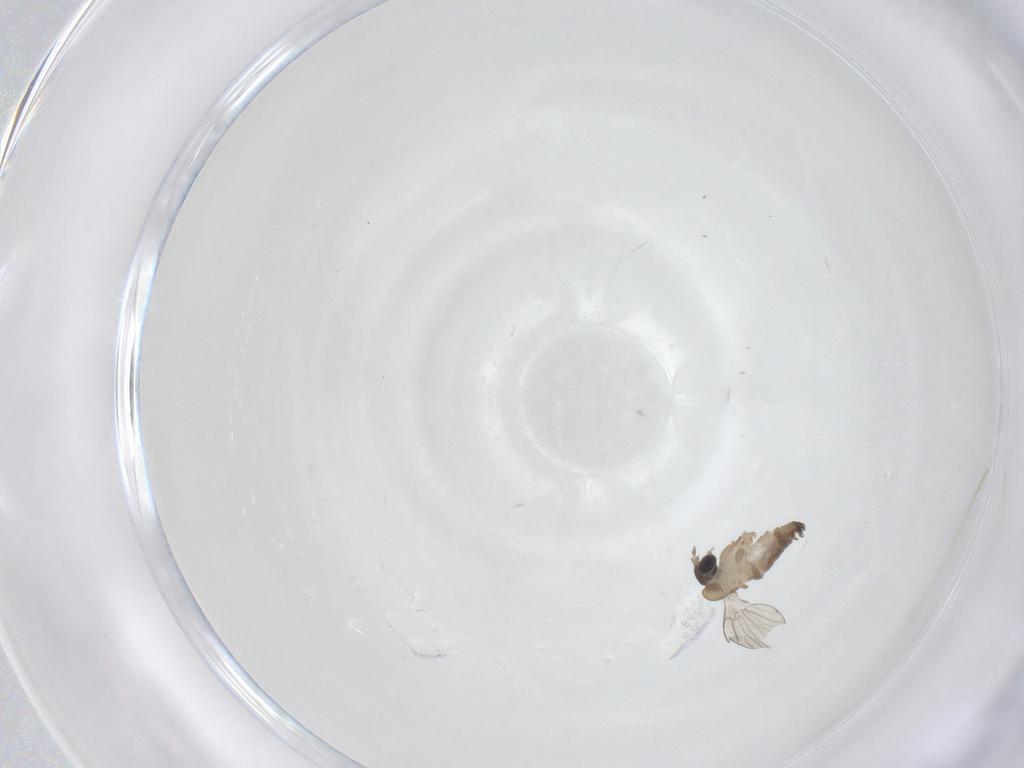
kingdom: Animalia
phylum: Arthropoda
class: Insecta
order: Diptera
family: Psychodidae
